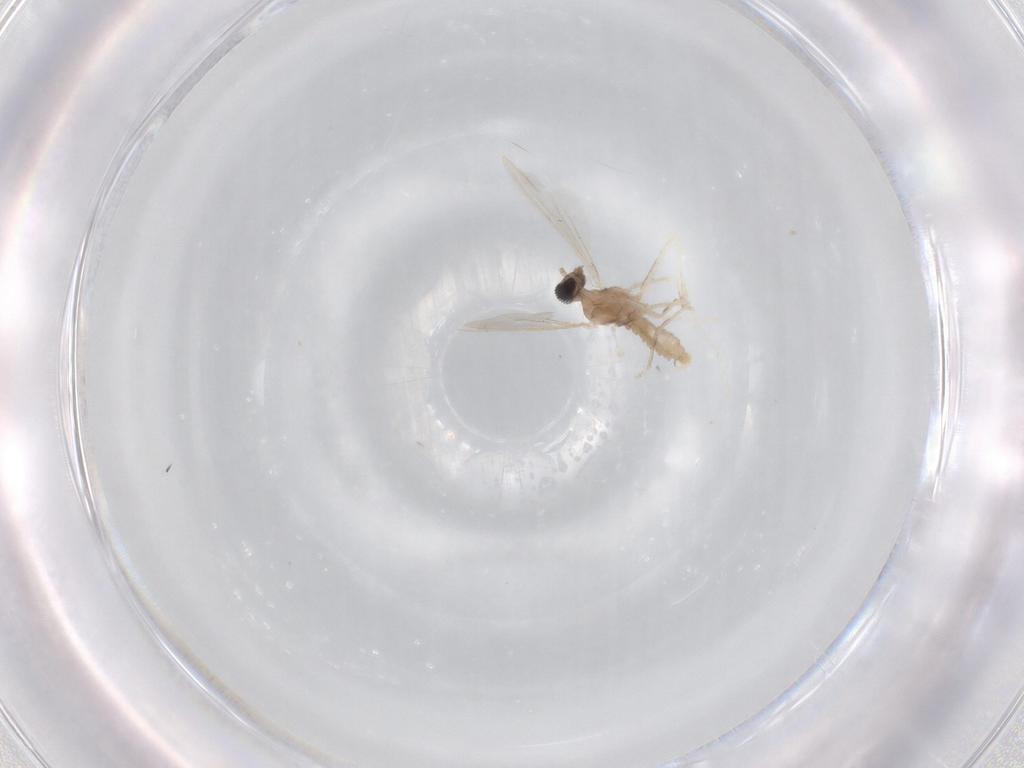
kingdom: Animalia
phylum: Arthropoda
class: Insecta
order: Diptera
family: Cecidomyiidae
